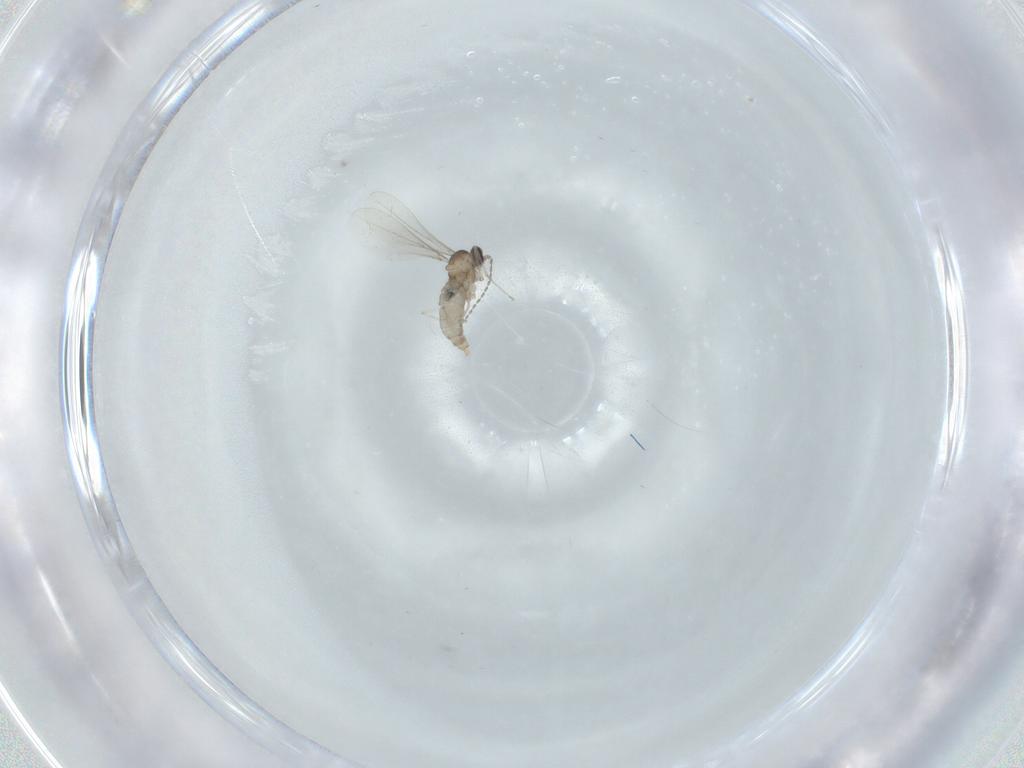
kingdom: Animalia
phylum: Arthropoda
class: Insecta
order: Diptera
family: Cecidomyiidae
